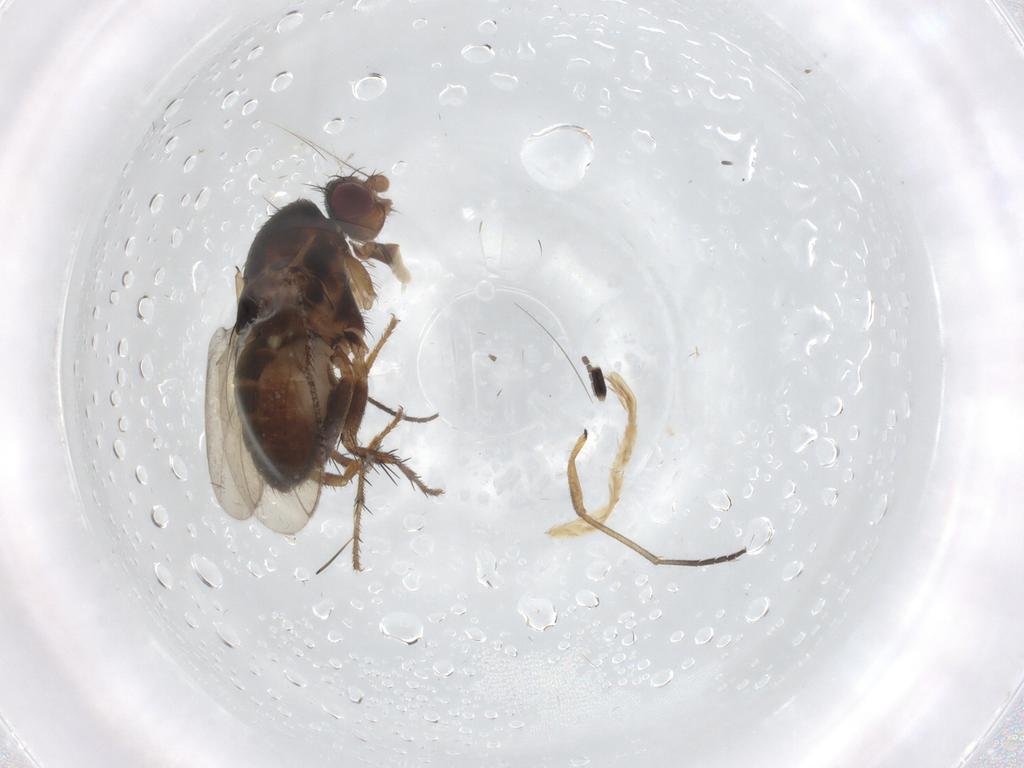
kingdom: Animalia
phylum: Arthropoda
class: Insecta
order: Diptera
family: Sphaeroceridae
